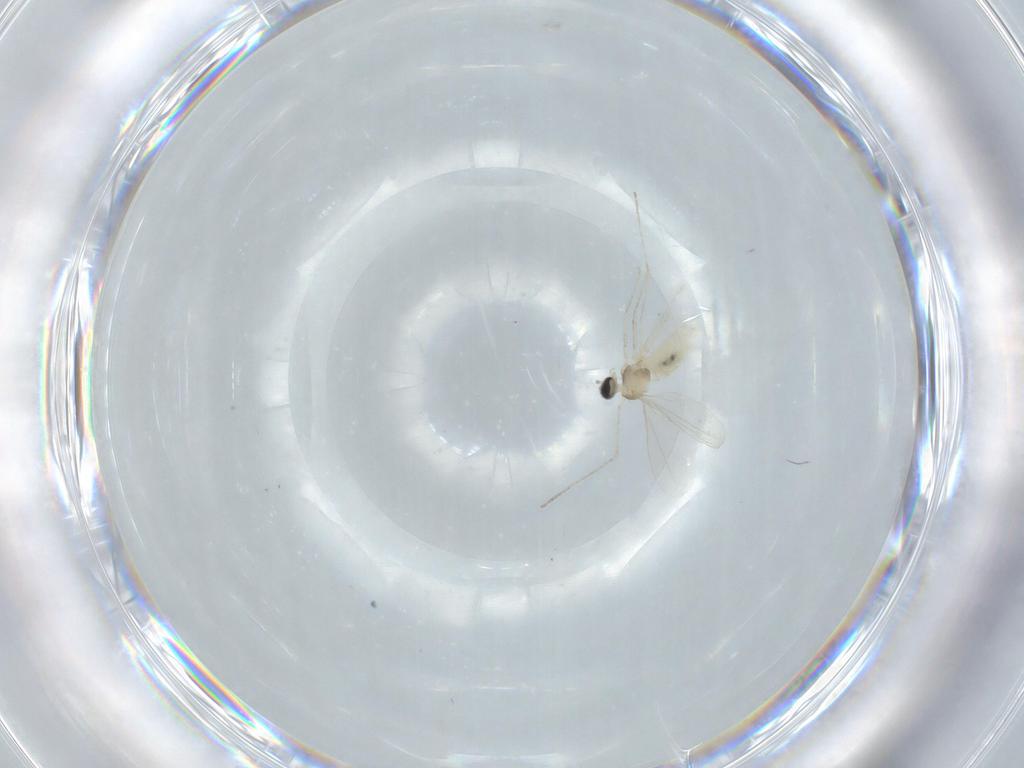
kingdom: Animalia
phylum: Arthropoda
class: Insecta
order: Diptera
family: Cecidomyiidae
